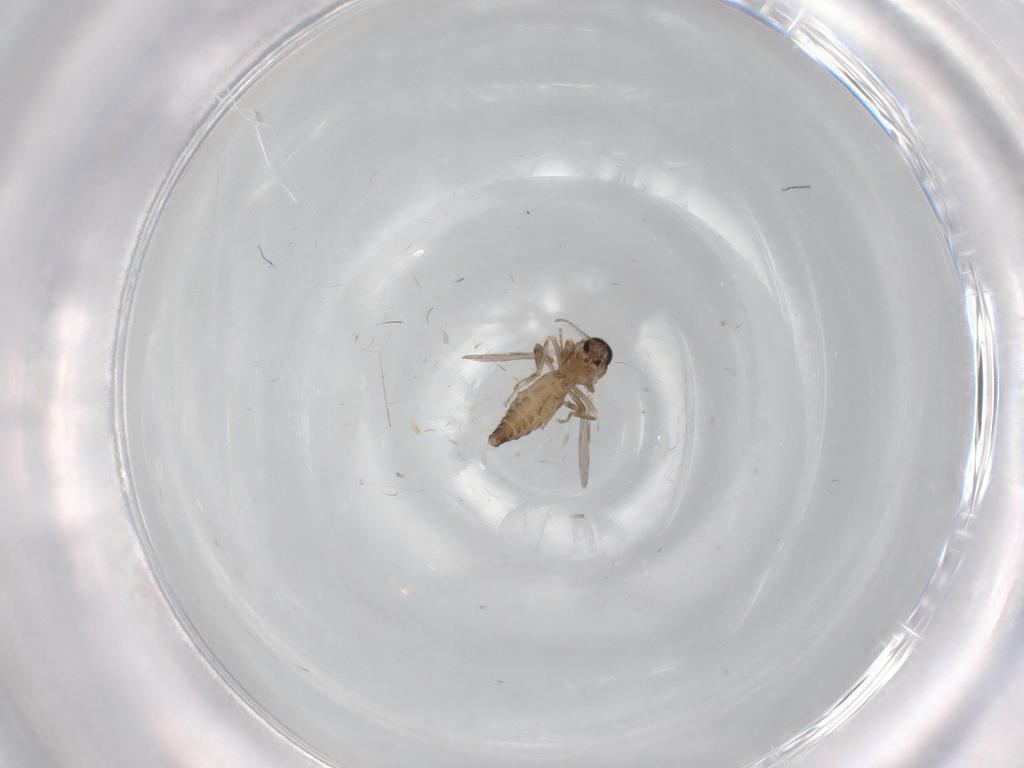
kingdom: Animalia
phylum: Arthropoda
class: Insecta
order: Diptera
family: Ceratopogonidae
